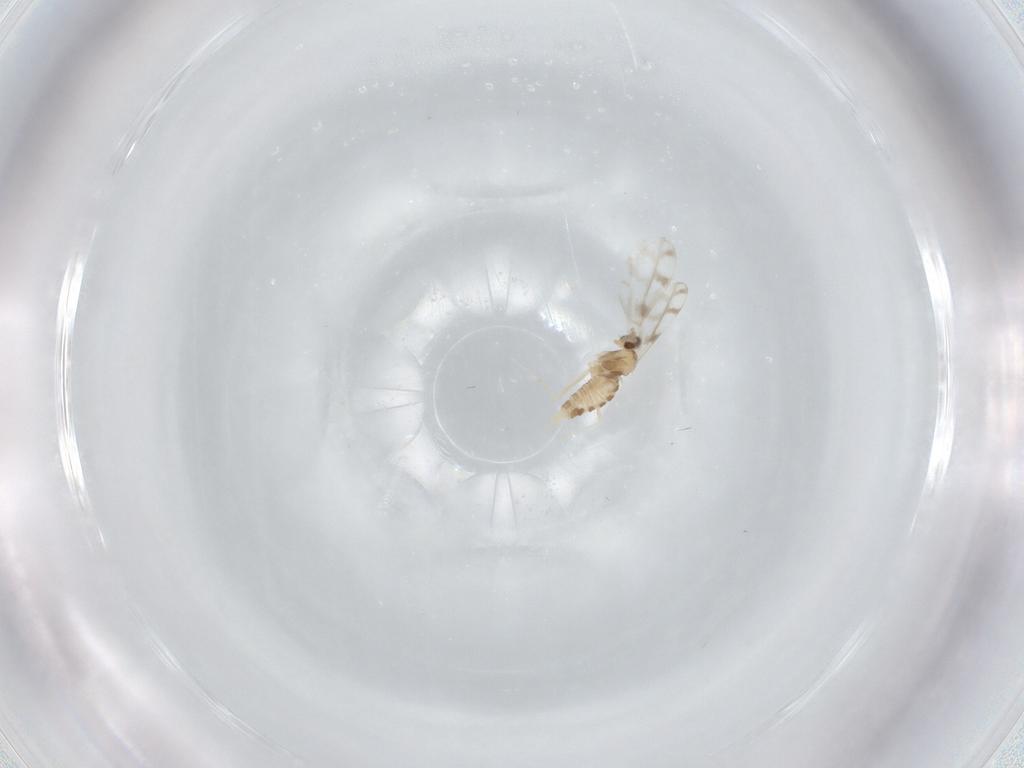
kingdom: Animalia
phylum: Arthropoda
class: Insecta
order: Diptera
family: Cecidomyiidae
